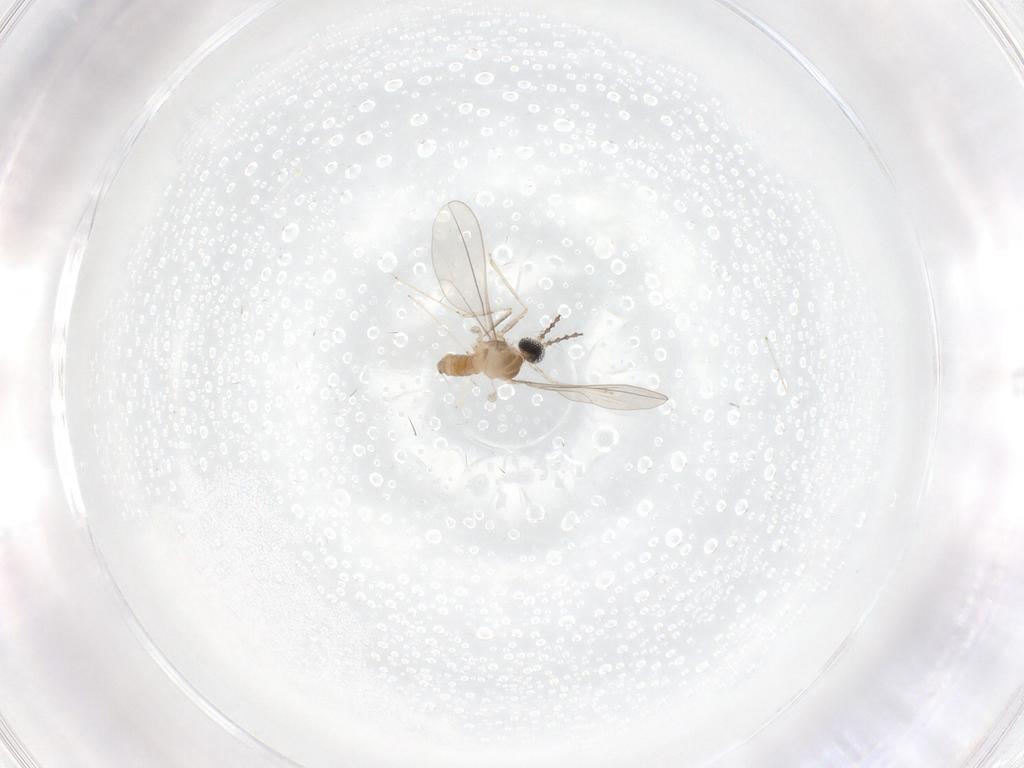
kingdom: Animalia
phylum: Arthropoda
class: Insecta
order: Diptera
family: Cecidomyiidae
